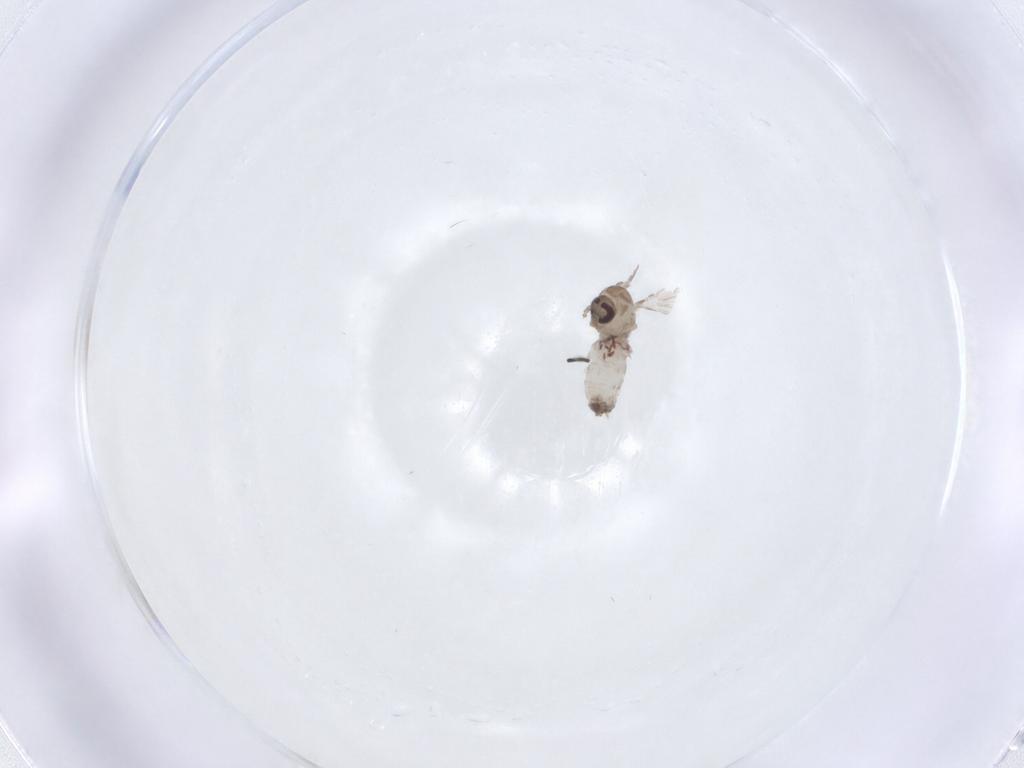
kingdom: Animalia
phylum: Arthropoda
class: Insecta
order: Diptera
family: Psychodidae
